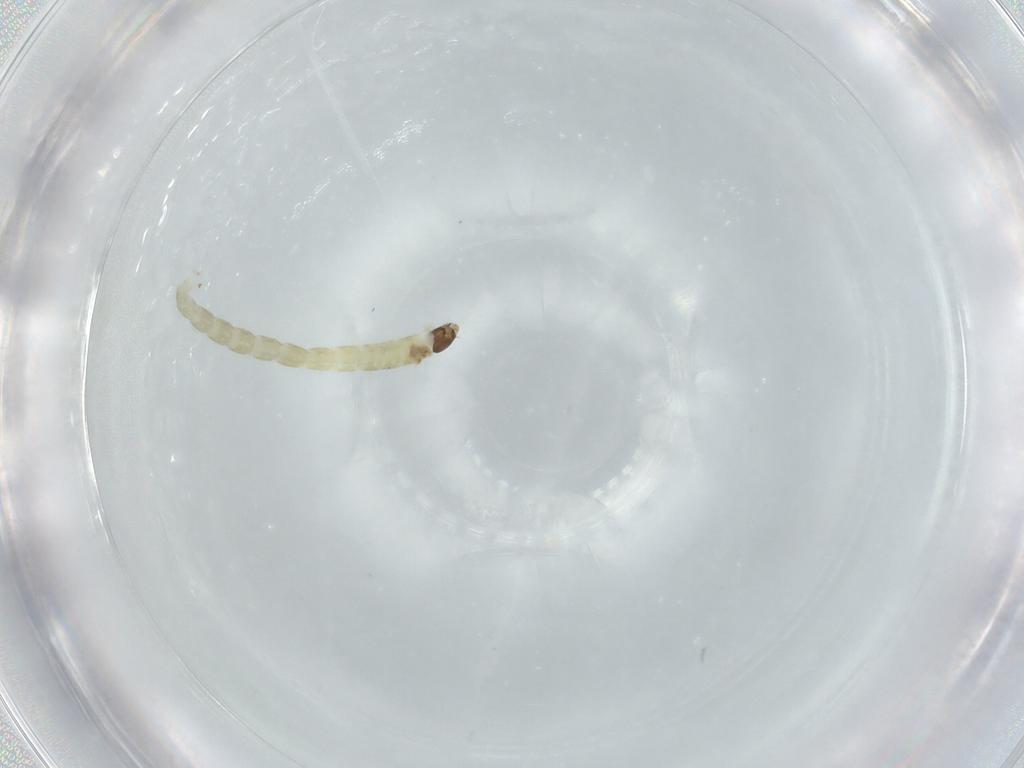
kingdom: Animalia
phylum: Arthropoda
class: Insecta
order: Diptera
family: Chironomidae
